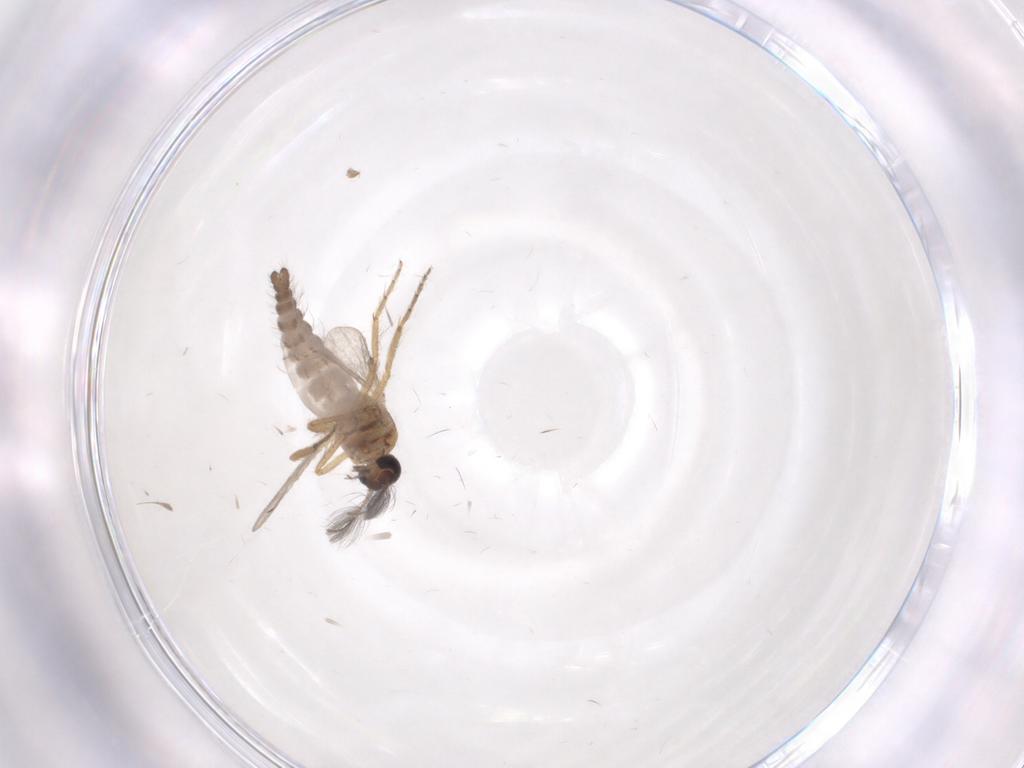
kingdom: Animalia
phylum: Arthropoda
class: Insecta
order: Diptera
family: Ceratopogonidae
